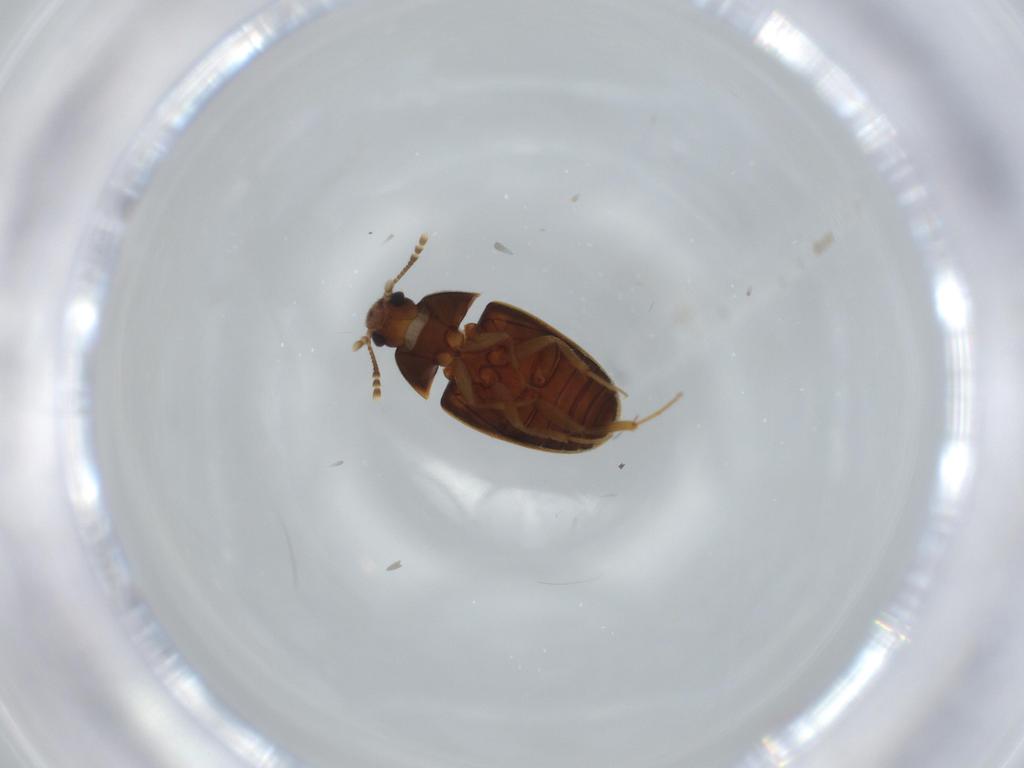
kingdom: Animalia
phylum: Arthropoda
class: Insecta
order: Coleoptera
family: Mycetophagidae
